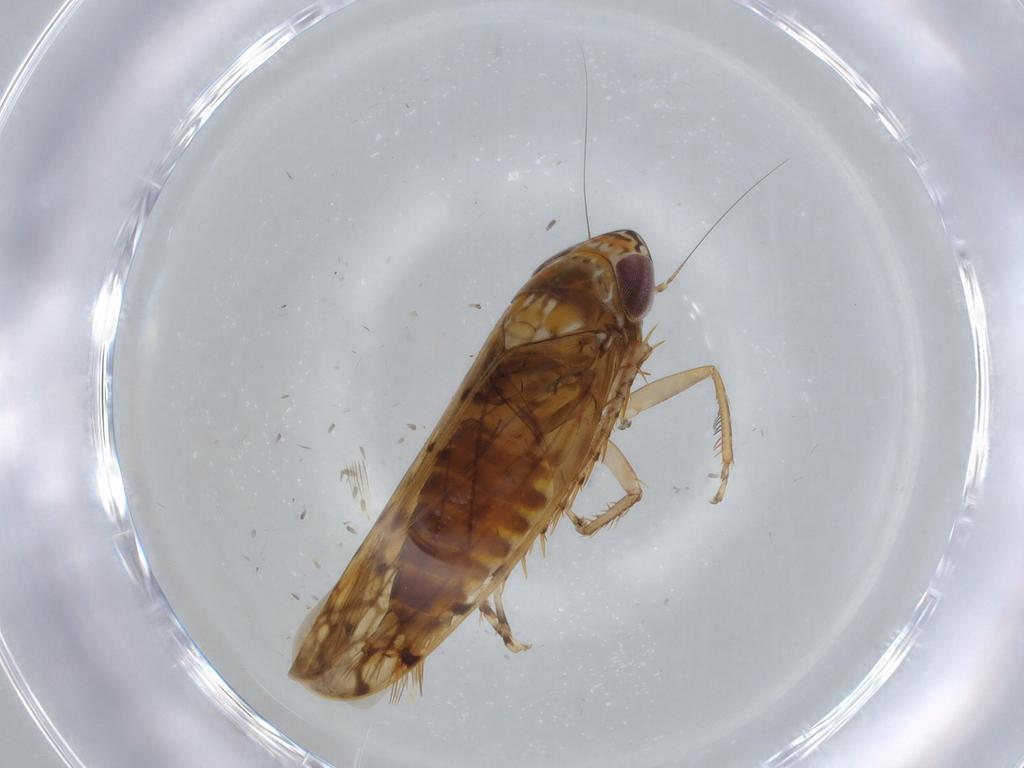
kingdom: Animalia
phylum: Arthropoda
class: Insecta
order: Hemiptera
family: Cicadellidae
